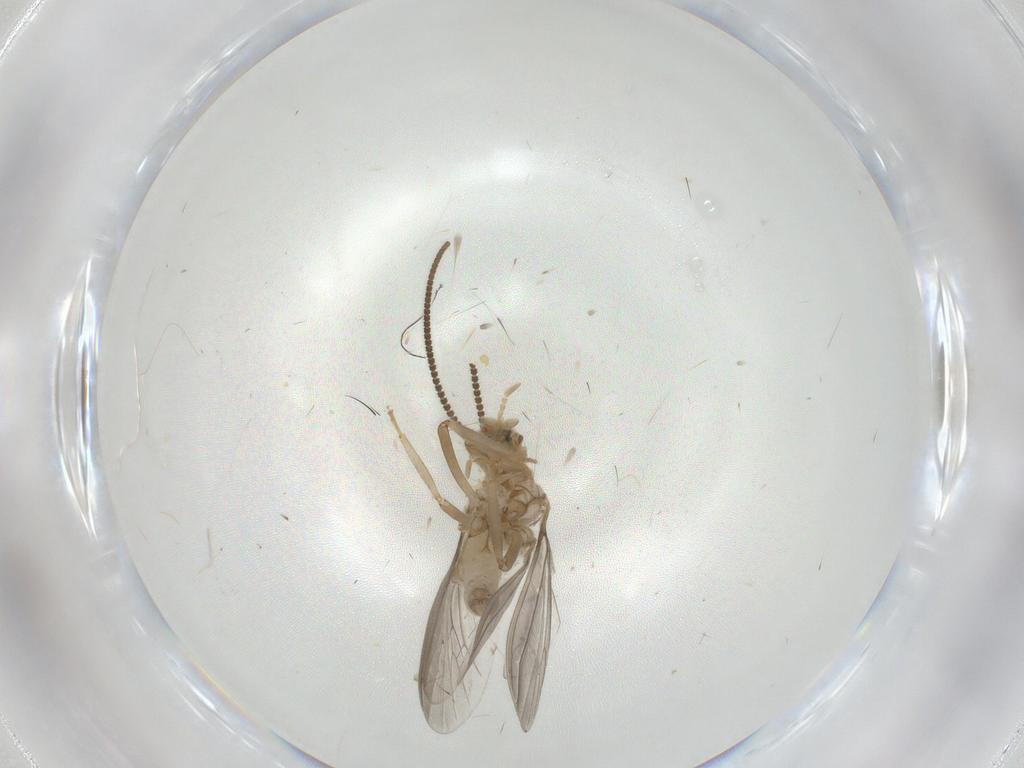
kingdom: Animalia
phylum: Arthropoda
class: Insecta
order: Neuroptera
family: Coniopterygidae
